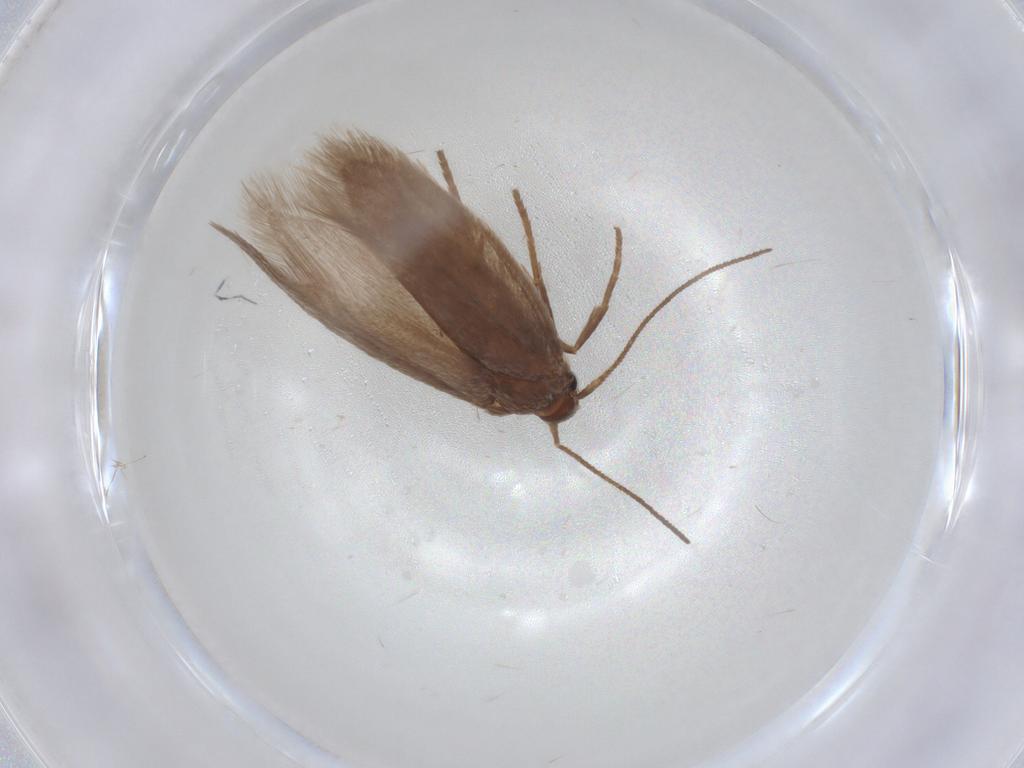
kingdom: Animalia
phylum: Arthropoda
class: Insecta
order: Lepidoptera
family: Limacodidae
